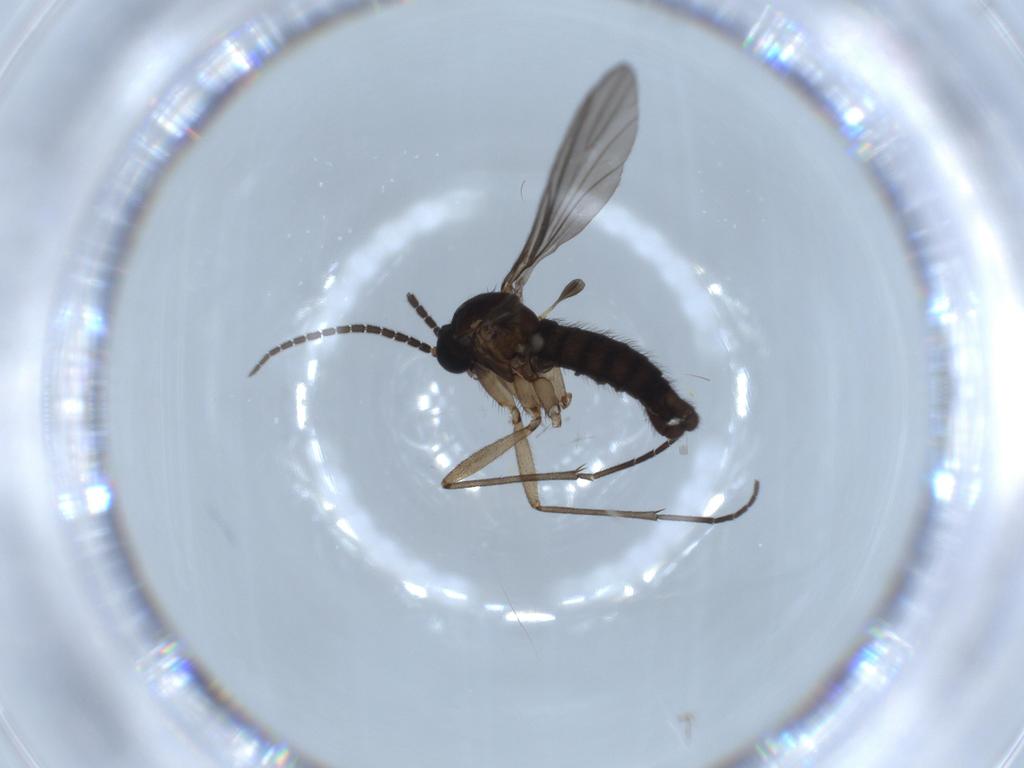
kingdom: Animalia
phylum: Arthropoda
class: Insecta
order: Diptera
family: Sciaridae
